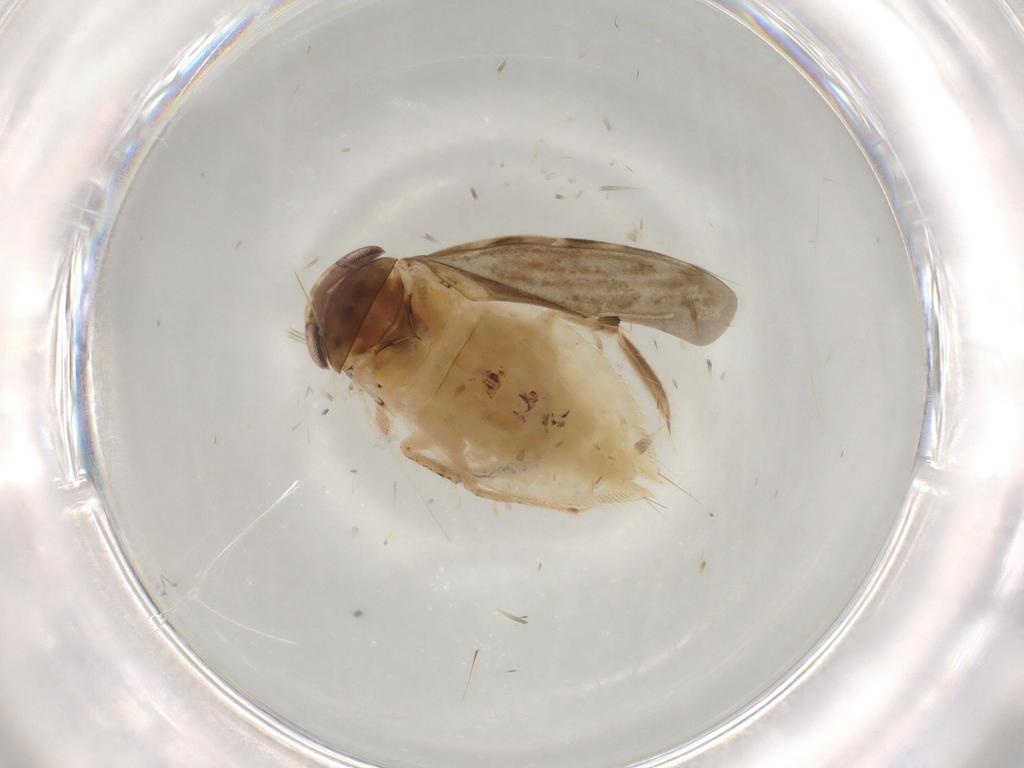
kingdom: Animalia
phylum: Arthropoda
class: Insecta
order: Hemiptera
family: Corixidae
